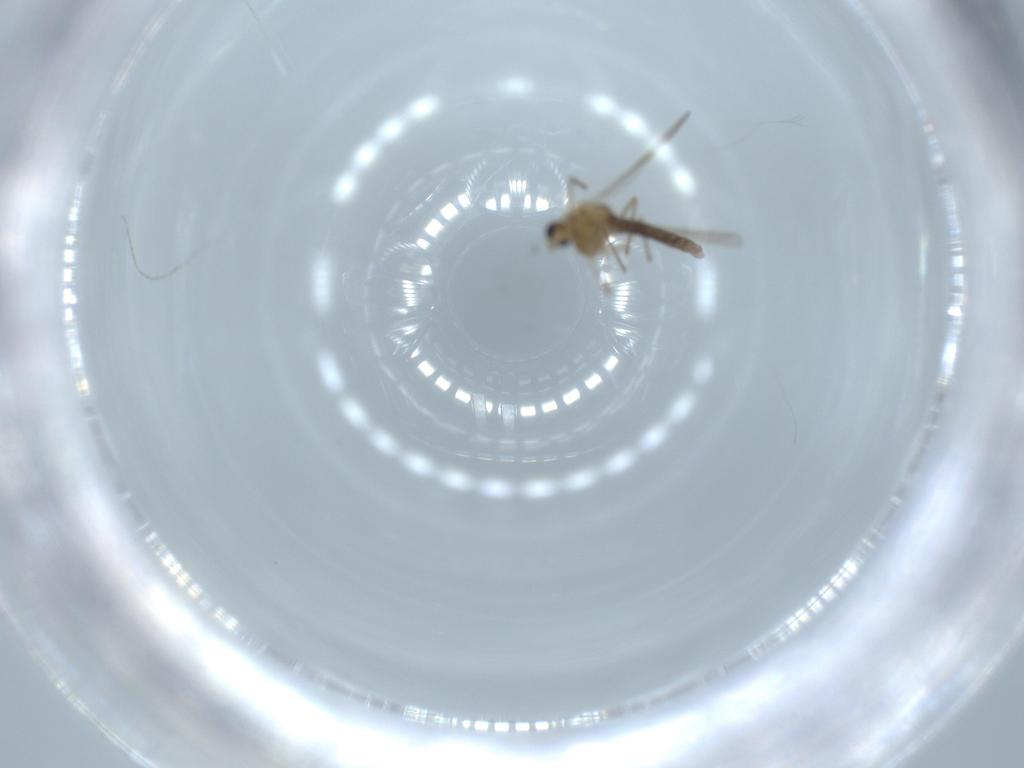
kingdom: Animalia
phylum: Arthropoda
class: Insecta
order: Diptera
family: Chironomidae
